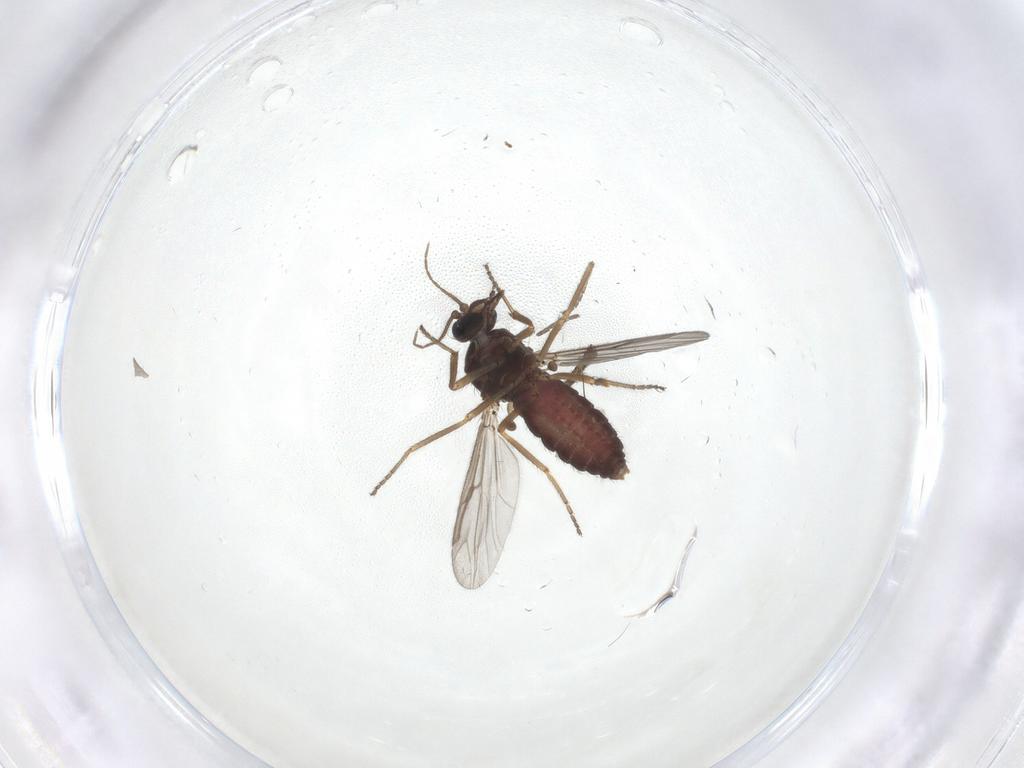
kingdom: Animalia
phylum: Arthropoda
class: Insecta
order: Diptera
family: Ceratopogonidae
